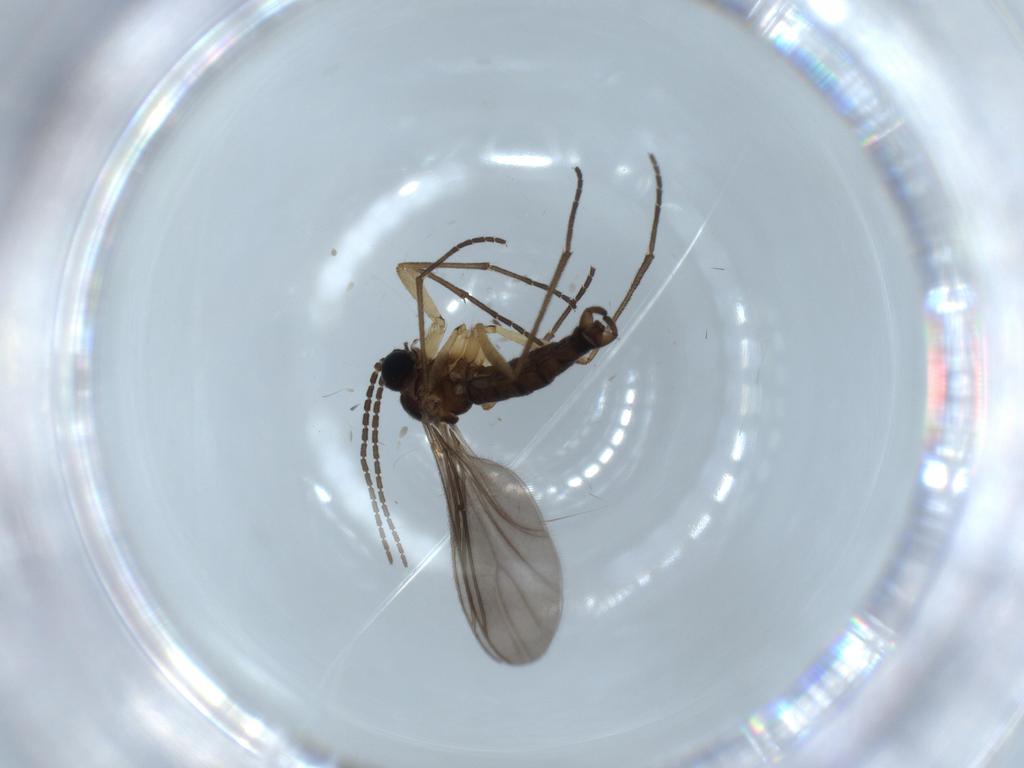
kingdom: Animalia
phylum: Arthropoda
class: Insecta
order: Diptera
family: Sciaridae
